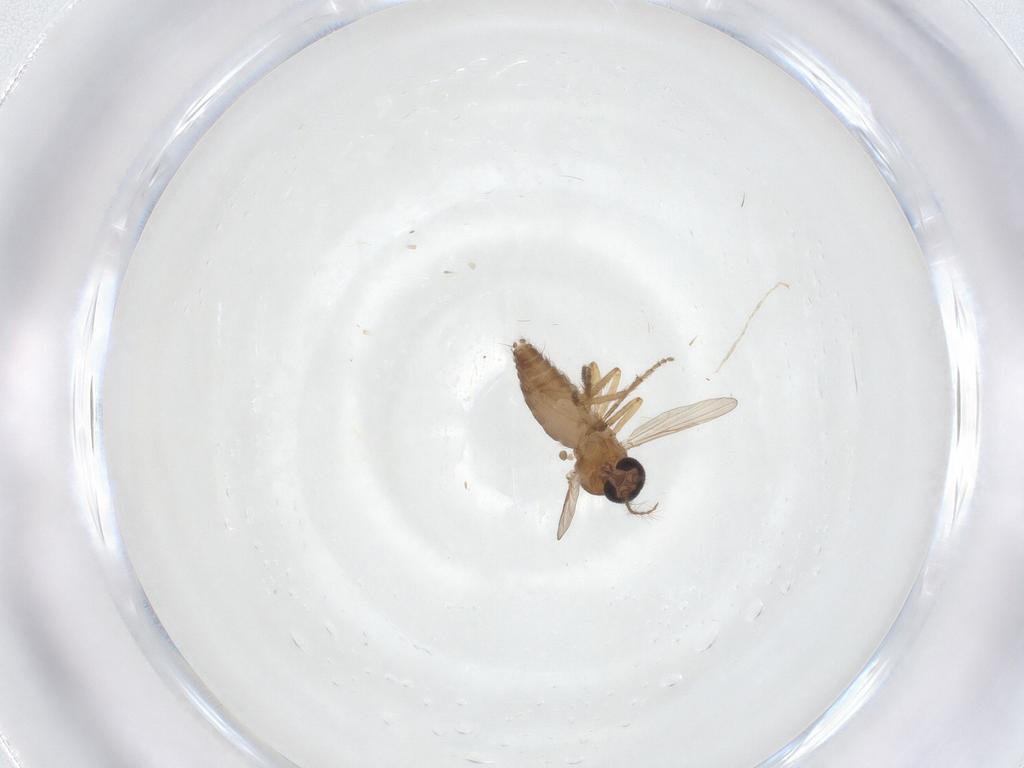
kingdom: Animalia
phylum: Arthropoda
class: Insecta
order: Diptera
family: Ceratopogonidae
